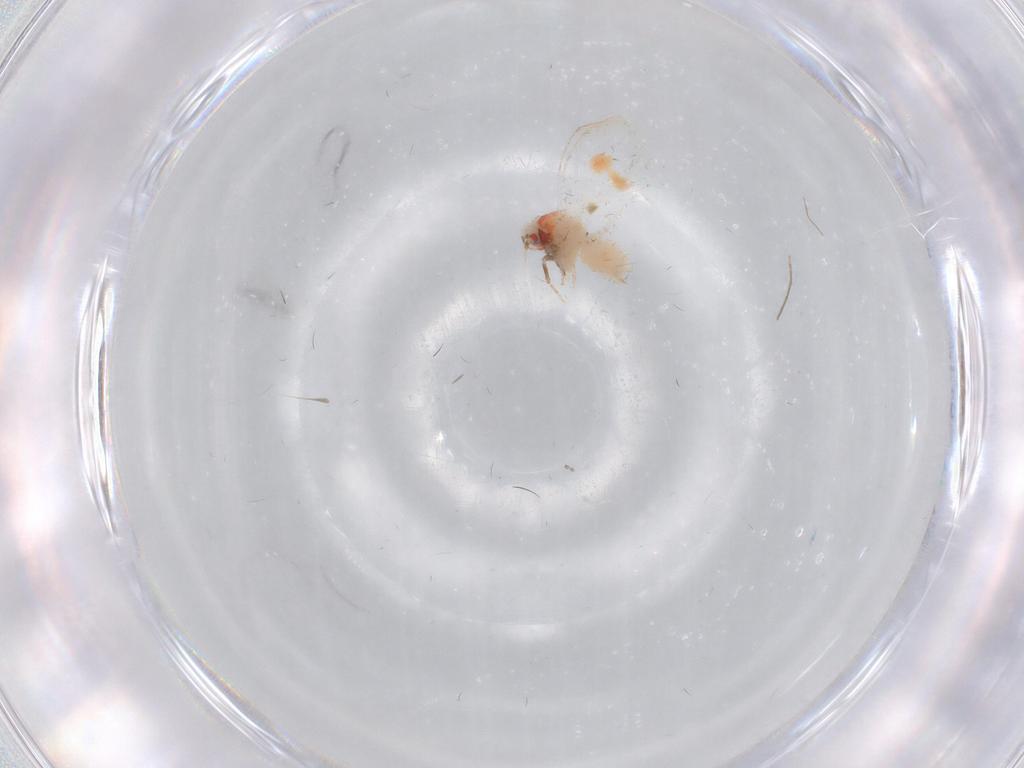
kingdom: Animalia
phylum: Arthropoda
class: Insecta
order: Hemiptera
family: Aleyrodidae
